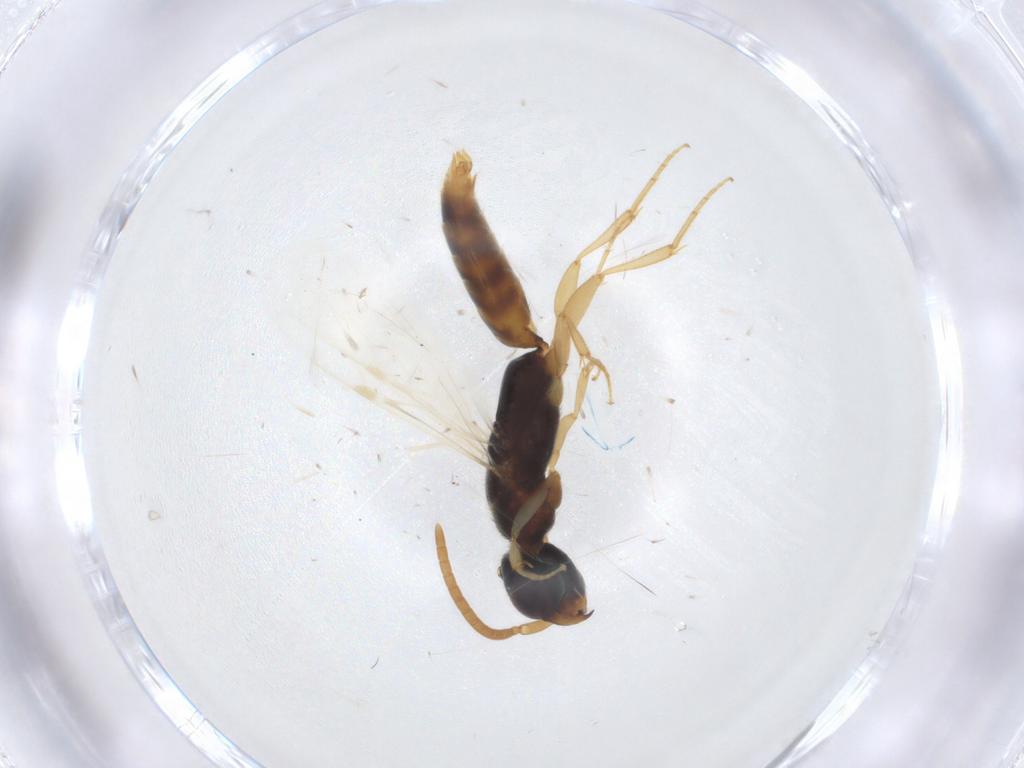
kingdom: Animalia
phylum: Arthropoda
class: Insecta
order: Hymenoptera
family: Bethylidae
